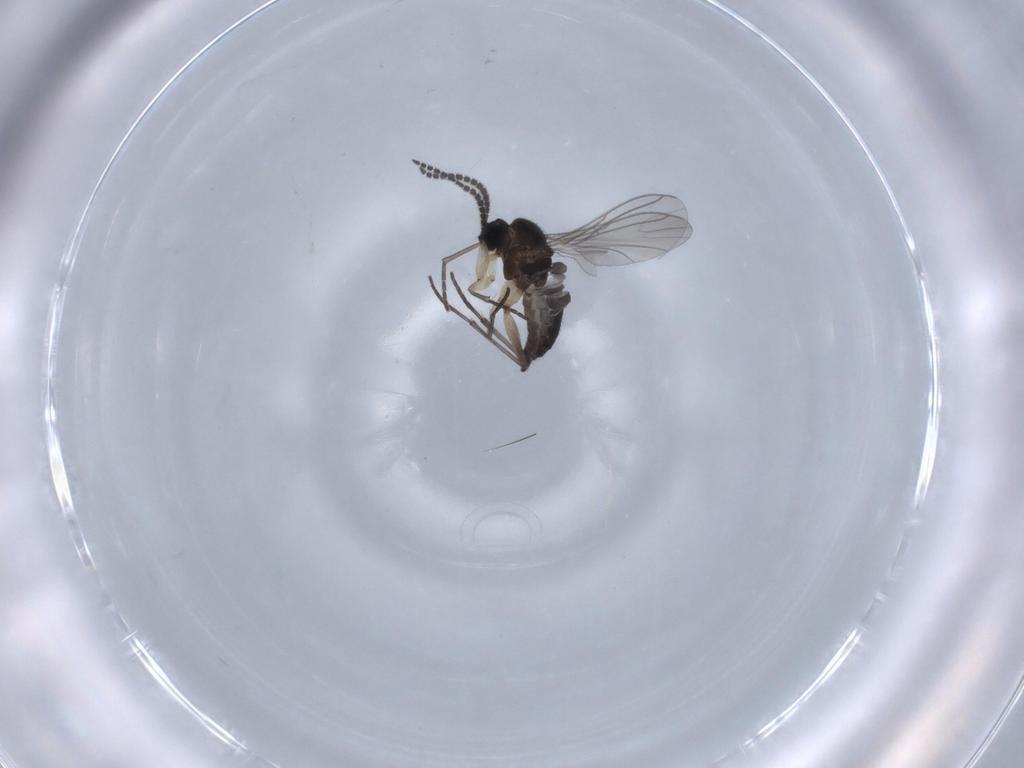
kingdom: Animalia
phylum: Arthropoda
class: Insecta
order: Diptera
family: Sciaridae
